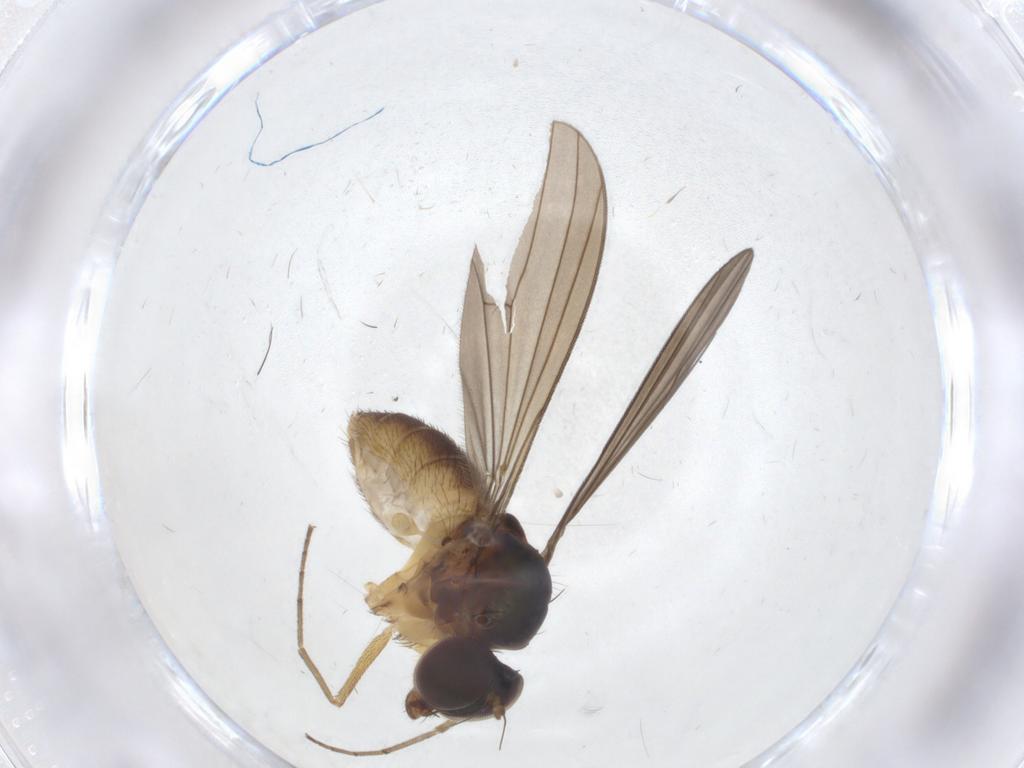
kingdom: Animalia
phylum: Arthropoda
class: Insecta
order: Diptera
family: Dolichopodidae
